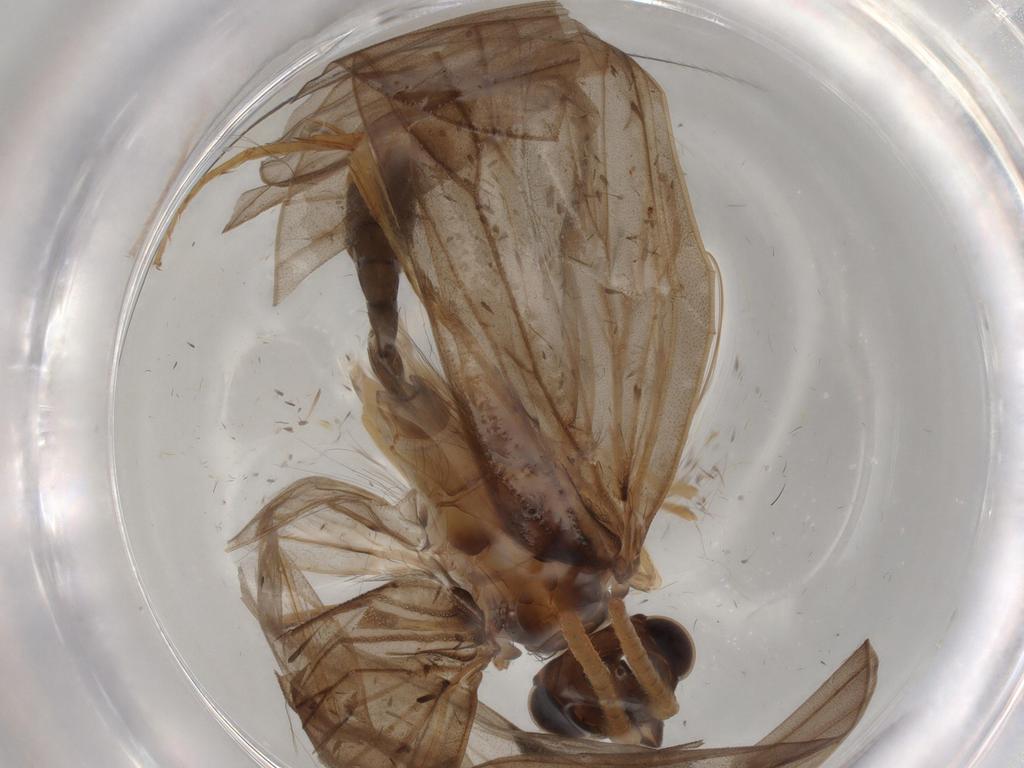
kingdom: Animalia
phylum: Arthropoda
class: Insecta
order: Trichoptera
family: Lepidostomatidae
